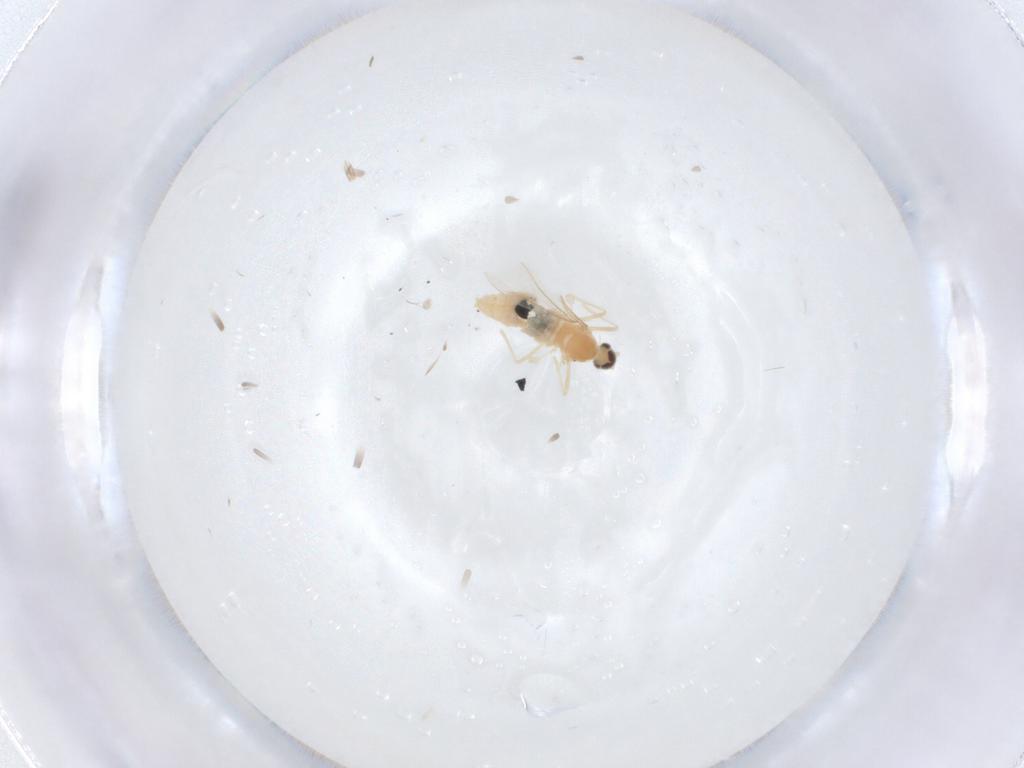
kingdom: Animalia
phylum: Arthropoda
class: Insecta
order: Diptera
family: Cecidomyiidae
